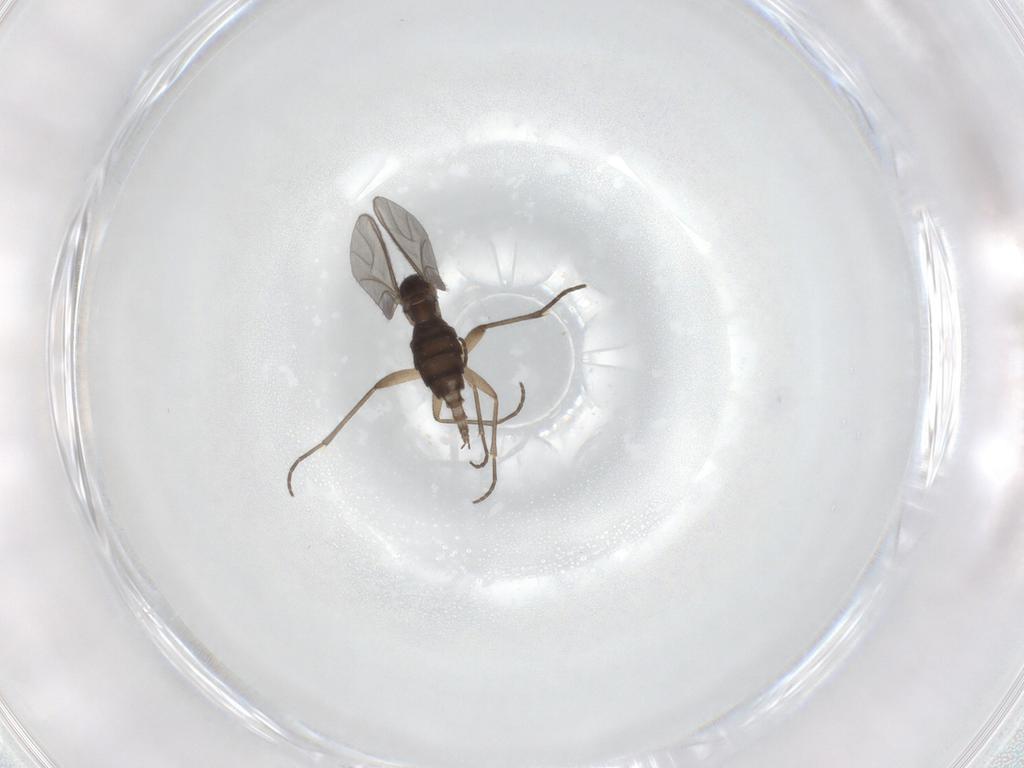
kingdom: Animalia
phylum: Arthropoda
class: Insecta
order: Diptera
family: Sciaridae
